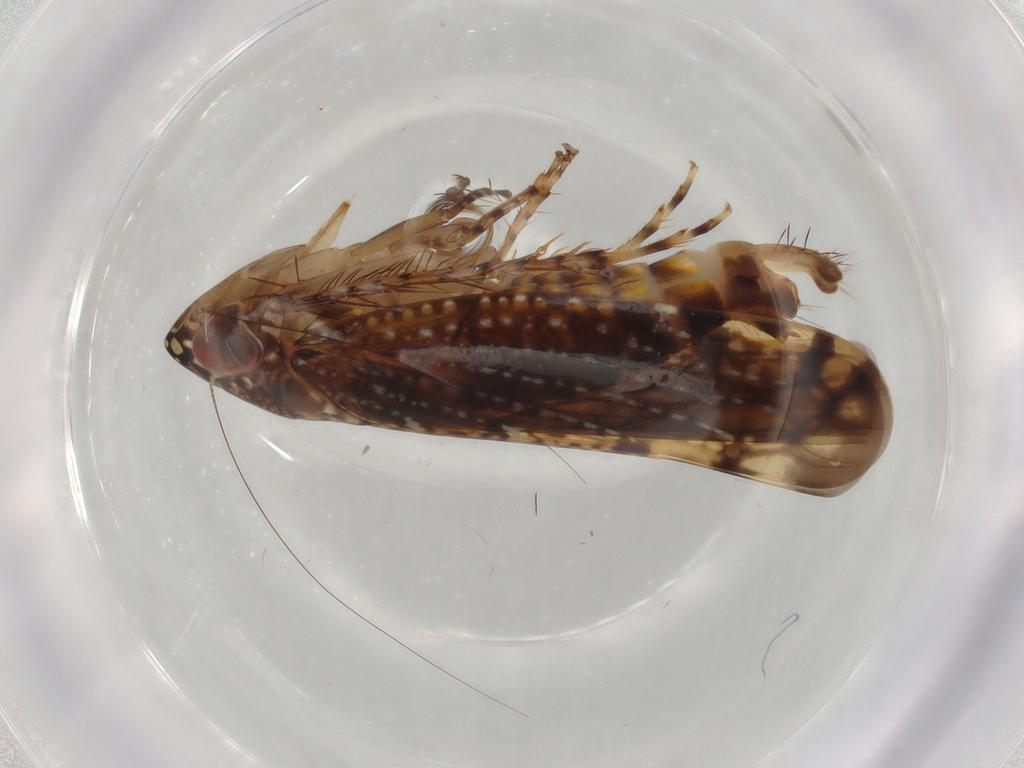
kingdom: Animalia
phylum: Arthropoda
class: Insecta
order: Hemiptera
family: Cicadellidae
